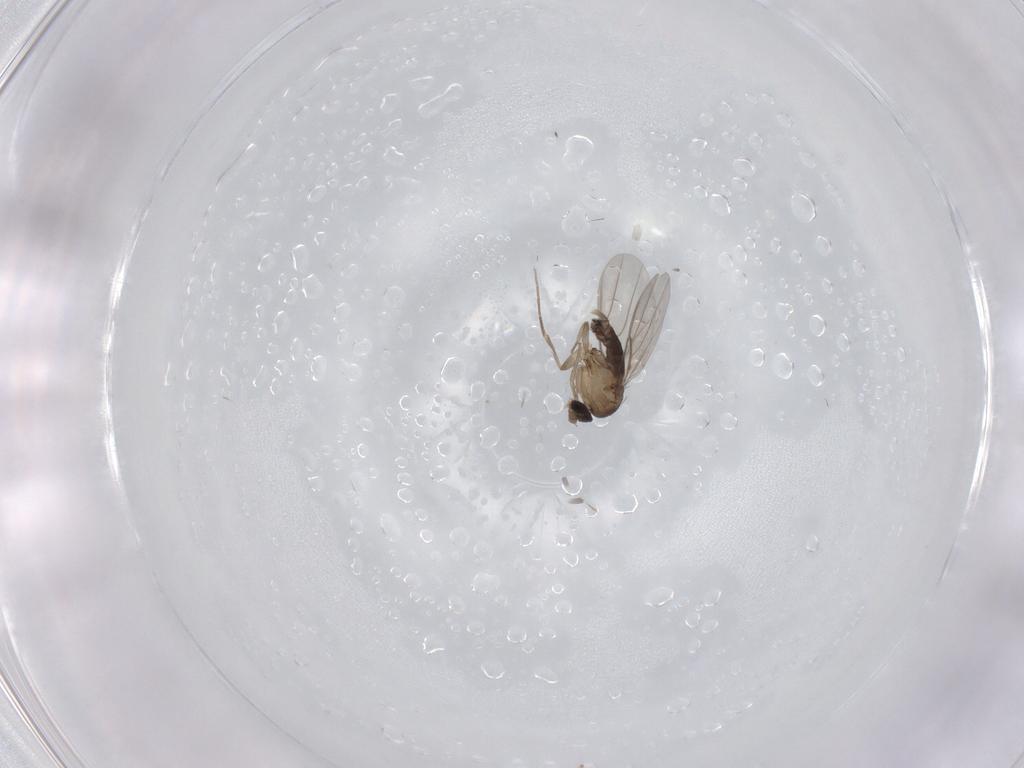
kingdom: Animalia
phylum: Arthropoda
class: Insecta
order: Diptera
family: Phoridae
